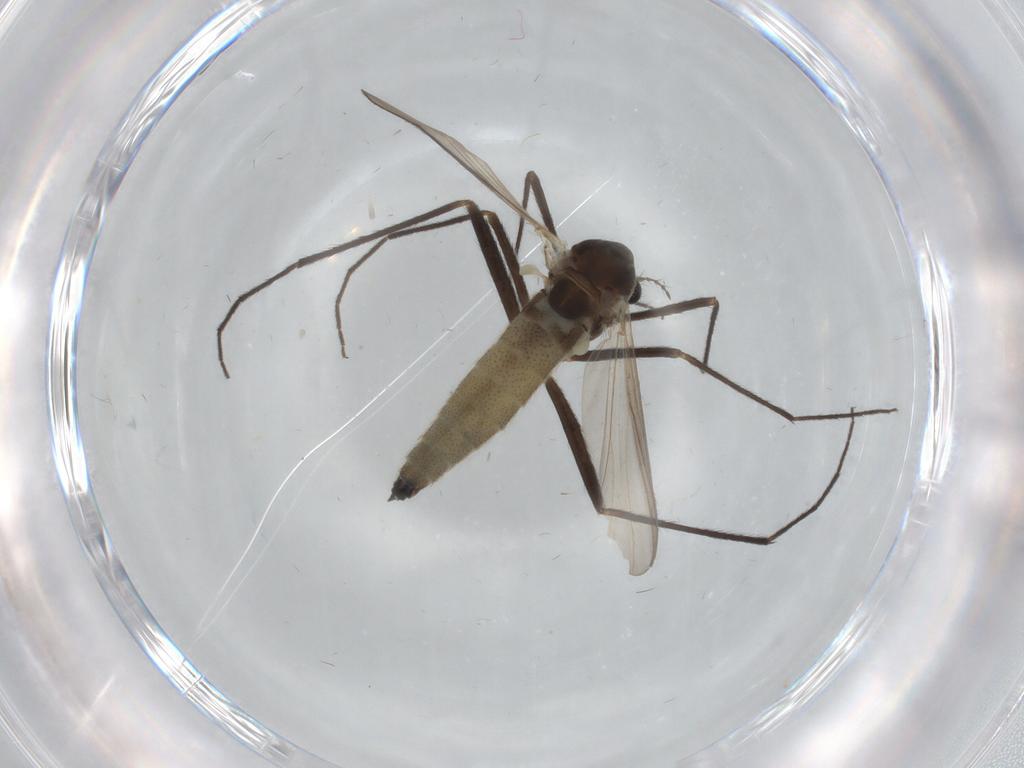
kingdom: Animalia
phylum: Arthropoda
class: Insecta
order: Diptera
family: Chironomidae
